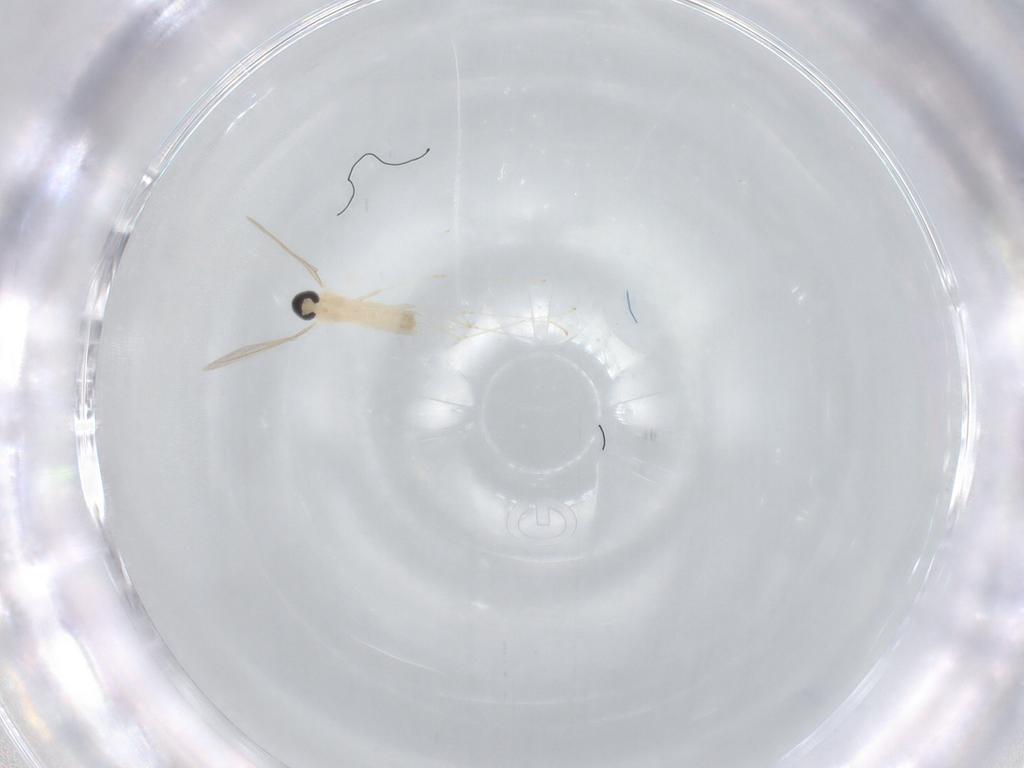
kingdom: Animalia
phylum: Arthropoda
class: Insecta
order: Diptera
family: Cecidomyiidae
